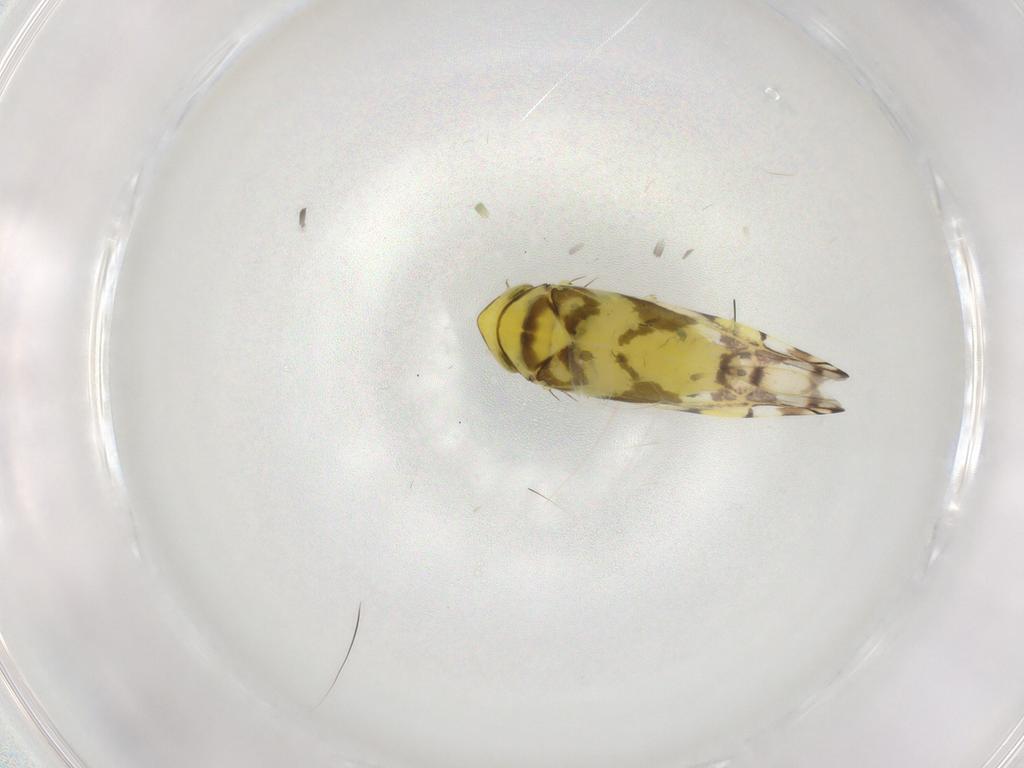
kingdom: Animalia
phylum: Arthropoda
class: Insecta
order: Hemiptera
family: Cicadellidae
